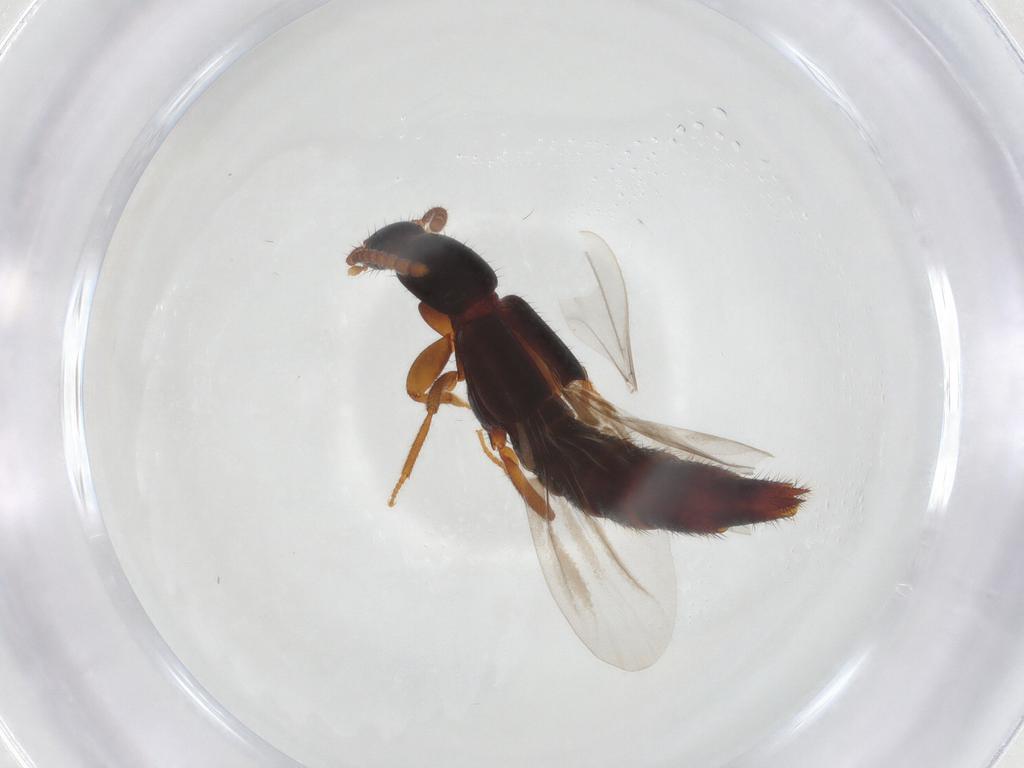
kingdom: Animalia
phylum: Arthropoda
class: Insecta
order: Coleoptera
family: Staphylinidae
